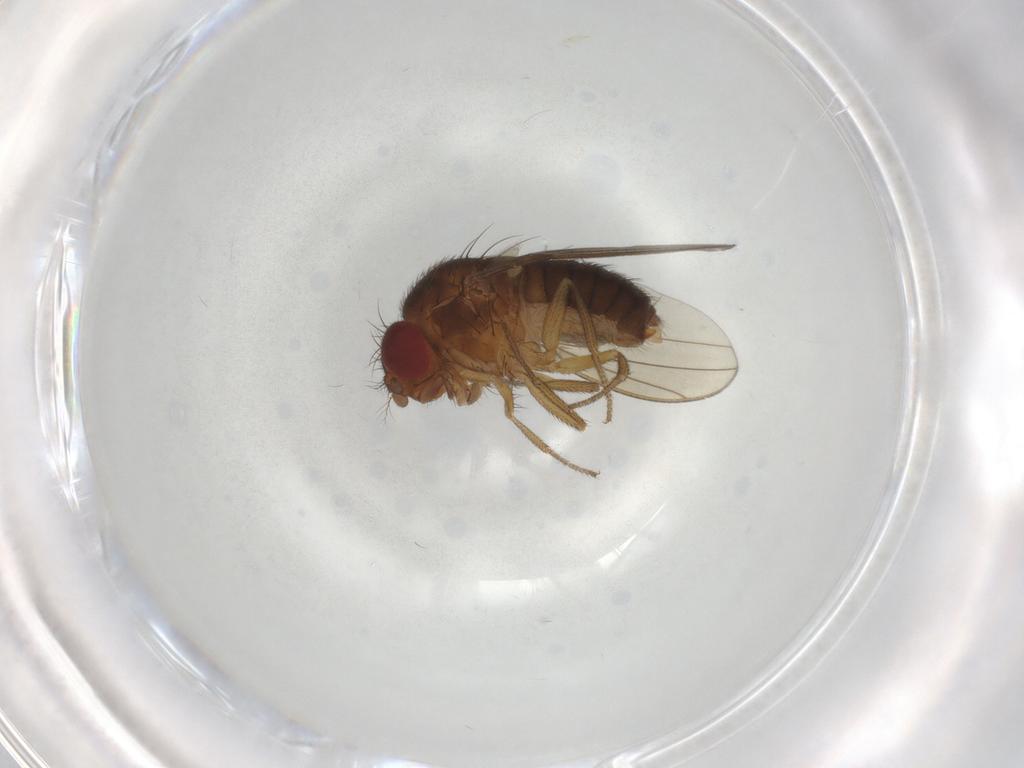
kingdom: Animalia
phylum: Arthropoda
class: Insecta
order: Diptera
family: Drosophilidae
